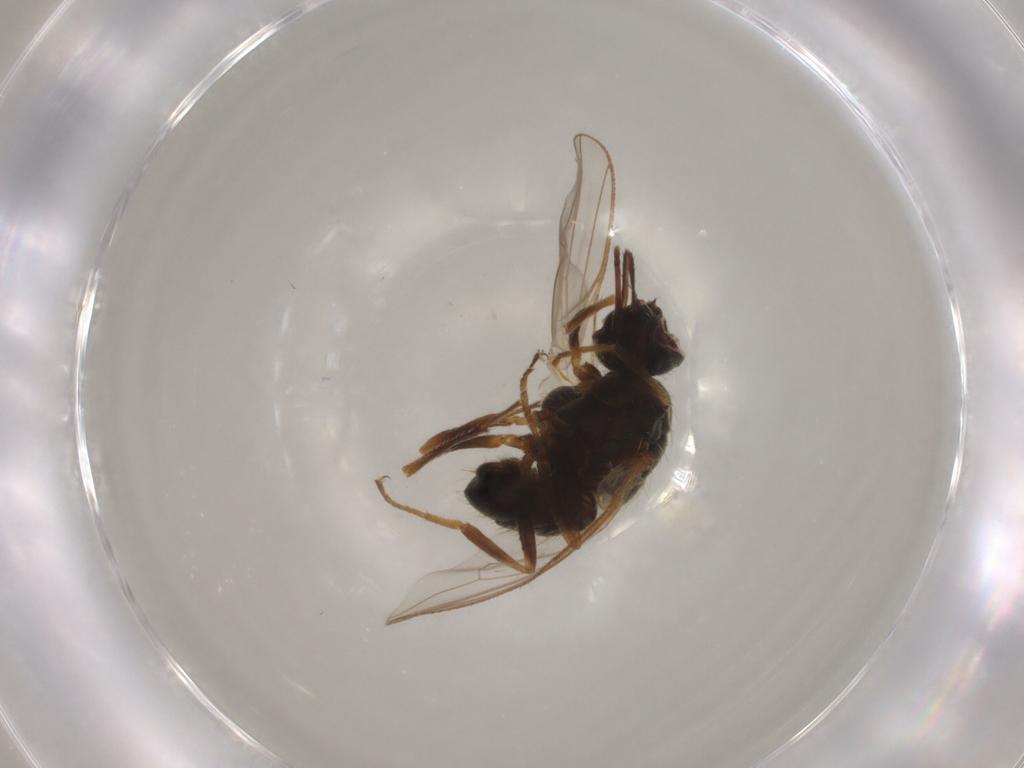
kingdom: Animalia
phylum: Arthropoda
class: Insecta
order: Diptera
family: Muscidae
